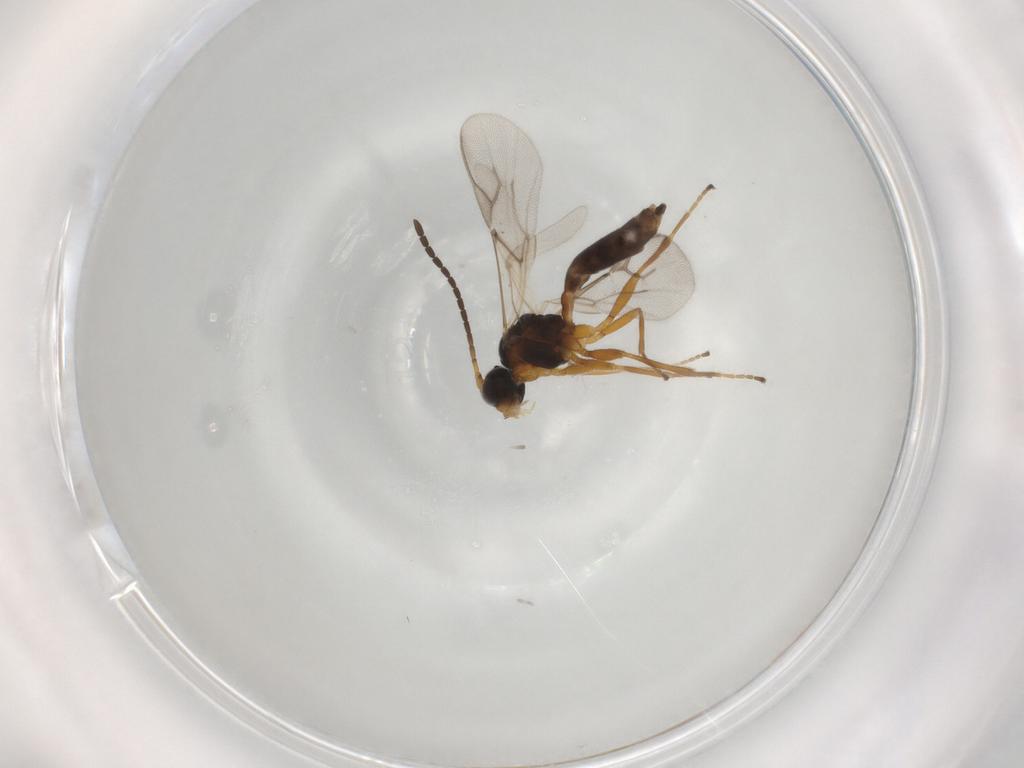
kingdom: Animalia
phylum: Arthropoda
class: Insecta
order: Hymenoptera
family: Braconidae
